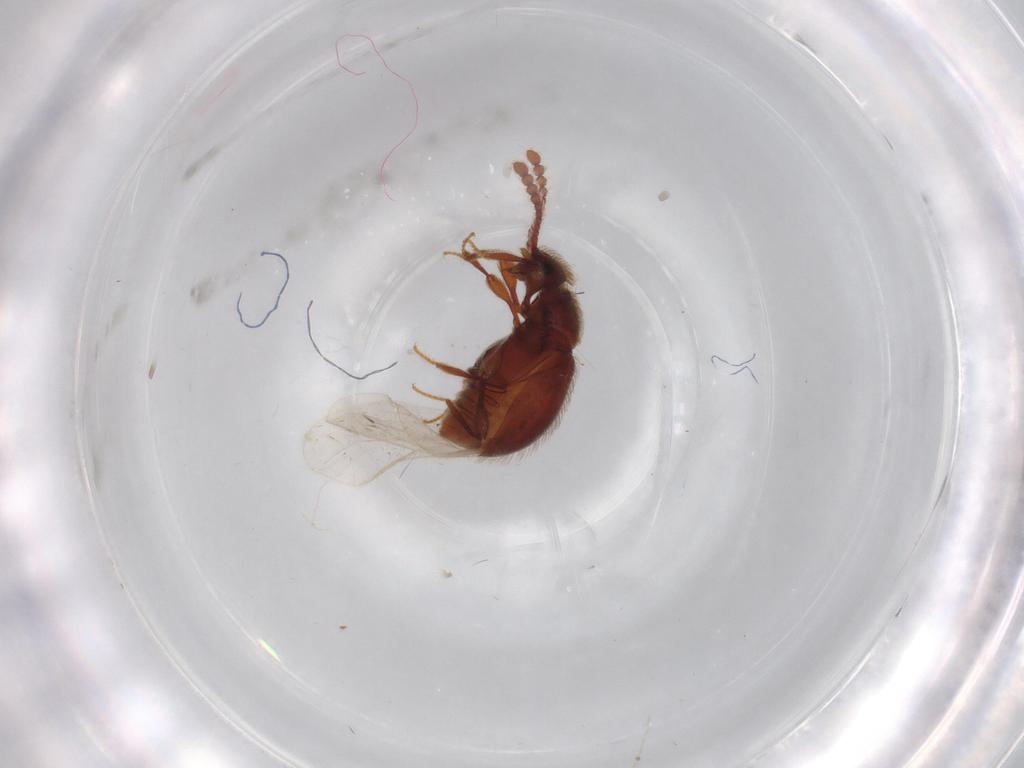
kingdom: Animalia
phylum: Arthropoda
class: Insecta
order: Coleoptera
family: Staphylinidae
